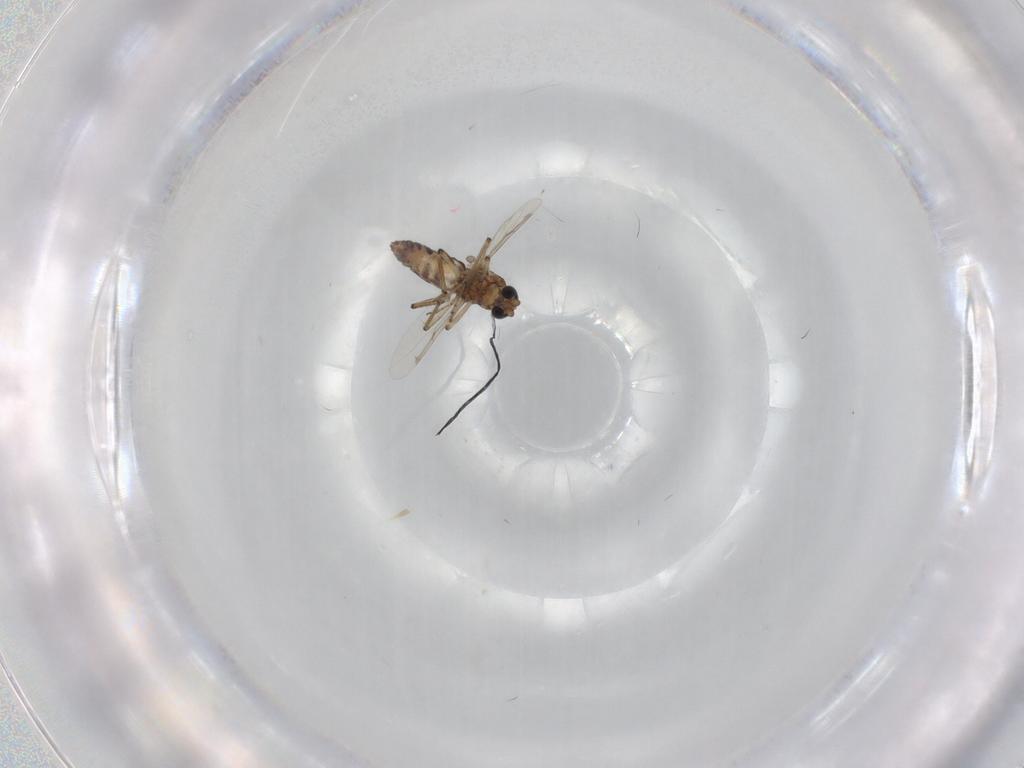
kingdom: Animalia
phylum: Arthropoda
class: Insecta
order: Diptera
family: Ceratopogonidae
